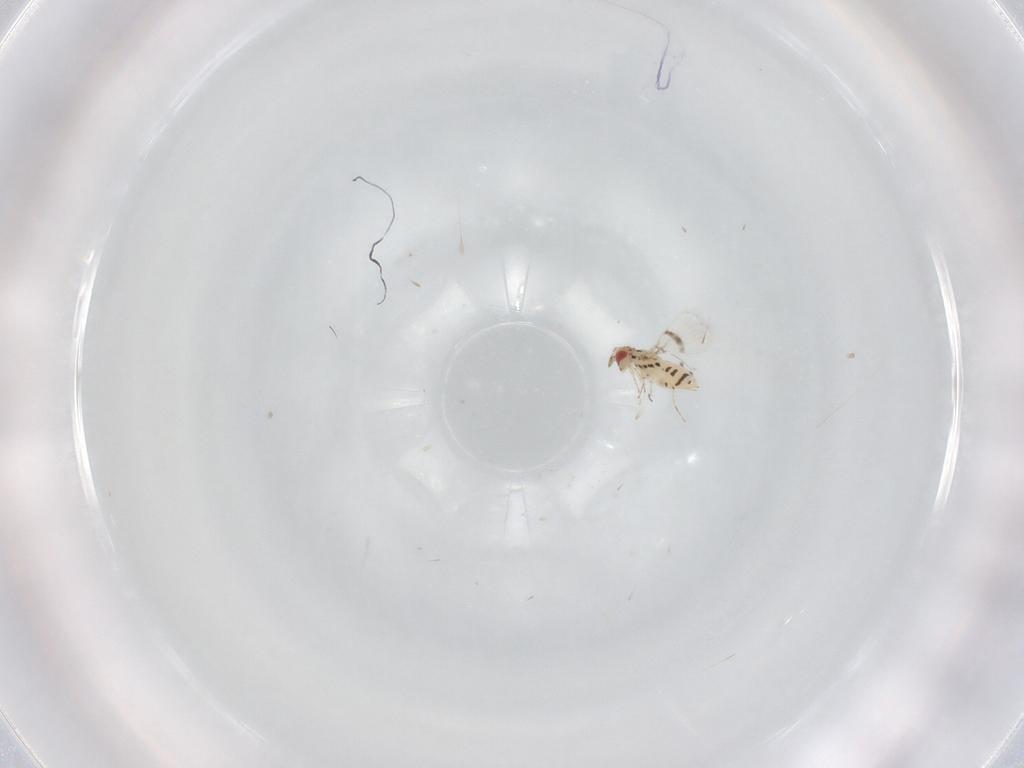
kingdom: Animalia
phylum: Arthropoda
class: Insecta
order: Hymenoptera
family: Trichogrammatidae
